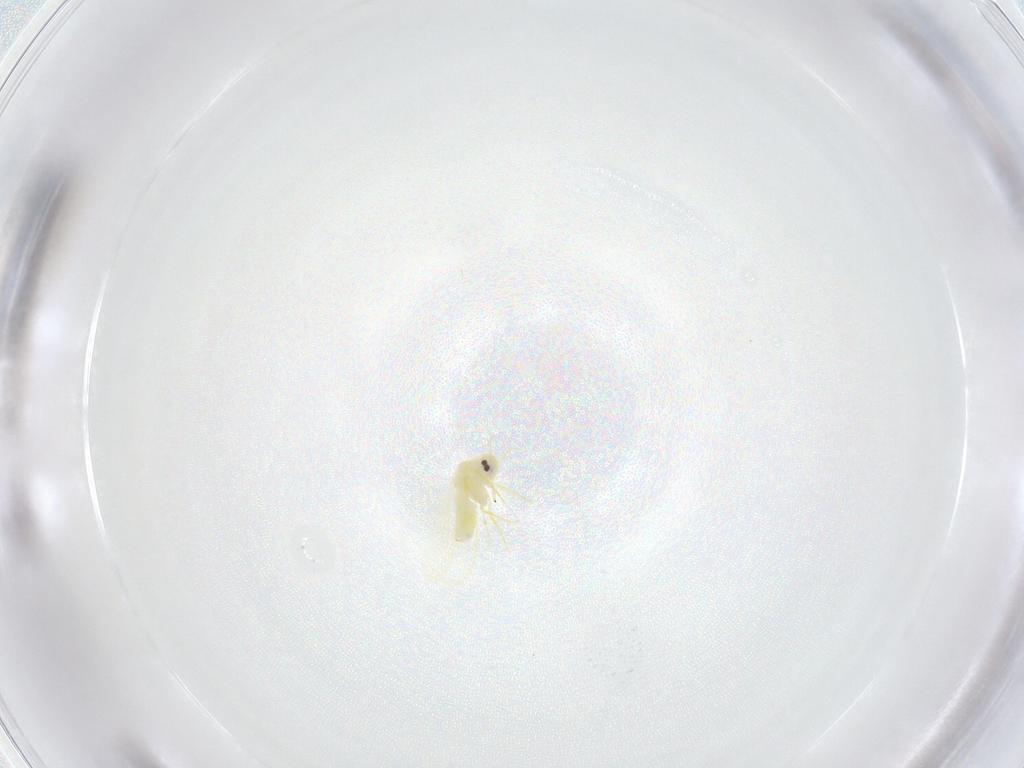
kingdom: Animalia
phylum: Arthropoda
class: Insecta
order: Hemiptera
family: Aleyrodidae
